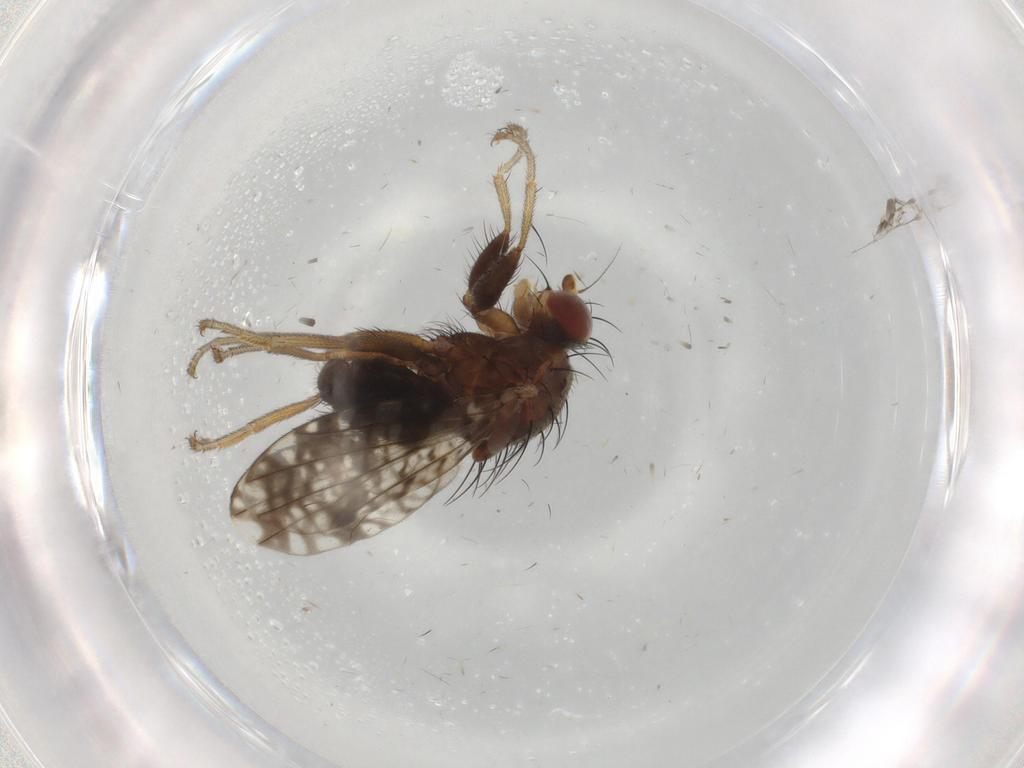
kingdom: Animalia
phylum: Arthropoda
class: Insecta
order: Diptera
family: Tephritidae
